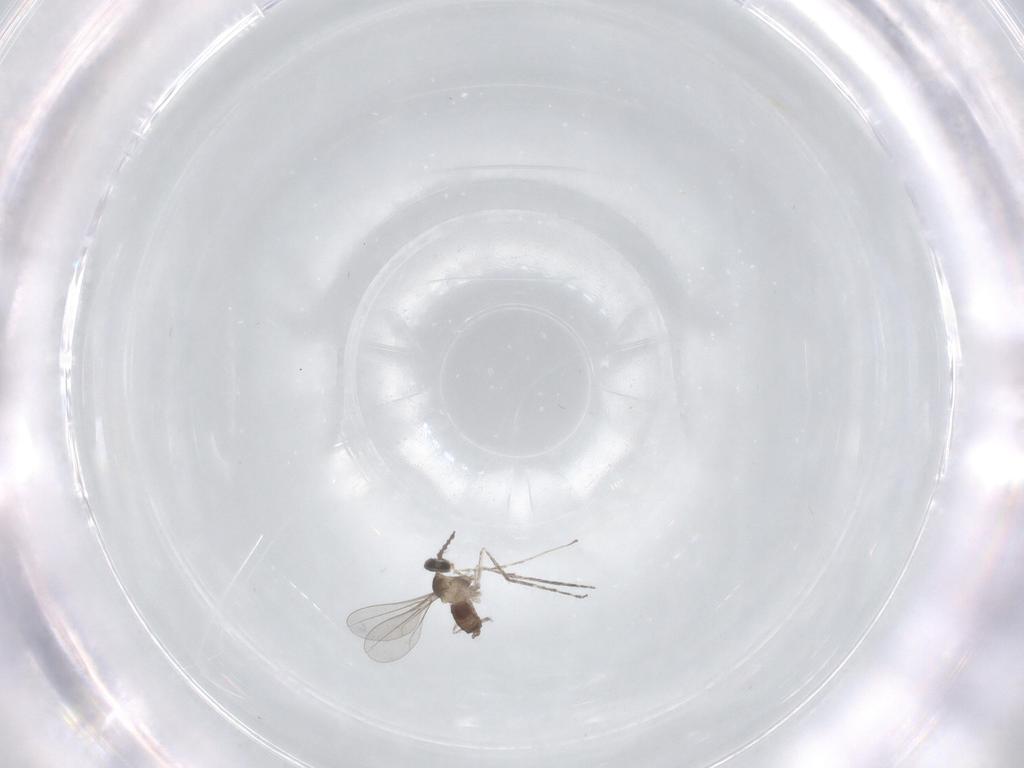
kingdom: Animalia
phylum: Arthropoda
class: Insecta
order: Diptera
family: Cecidomyiidae
